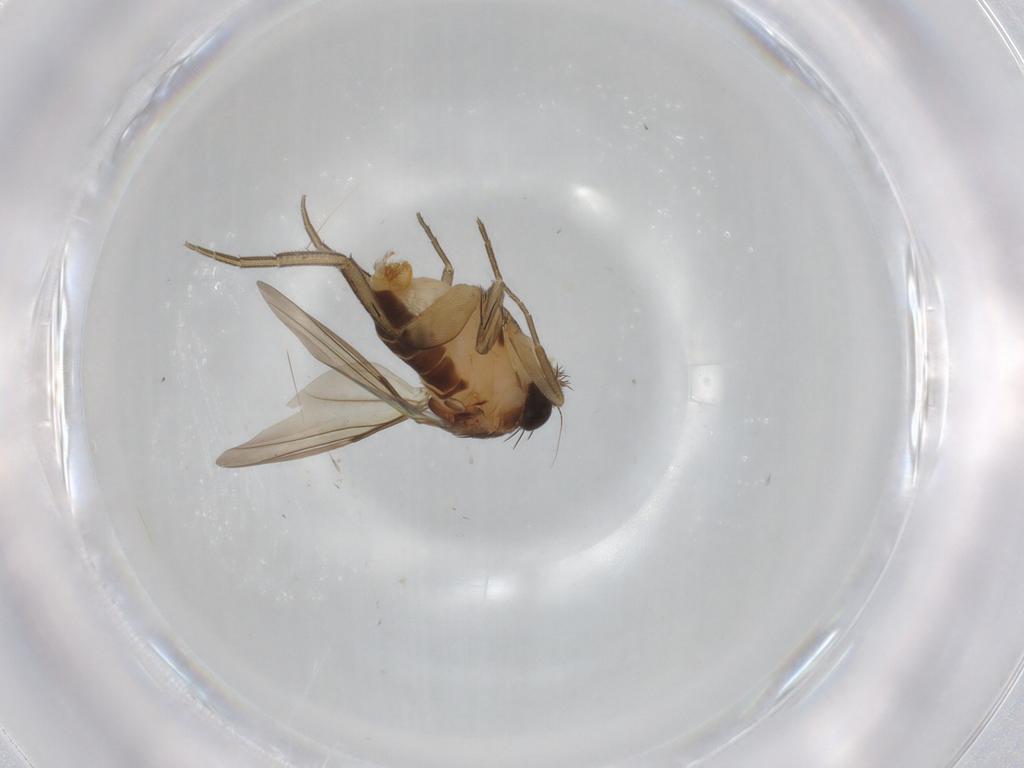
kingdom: Animalia
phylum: Arthropoda
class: Insecta
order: Diptera
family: Phoridae
